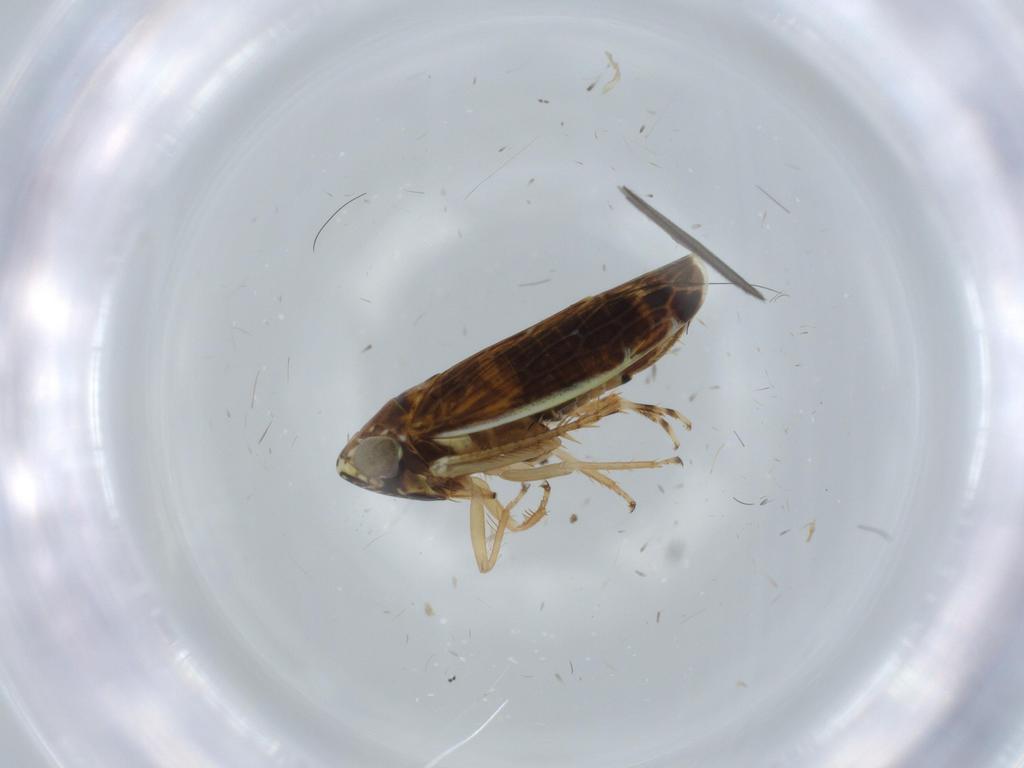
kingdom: Animalia
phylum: Arthropoda
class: Insecta
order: Hemiptera
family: Cicadellidae
